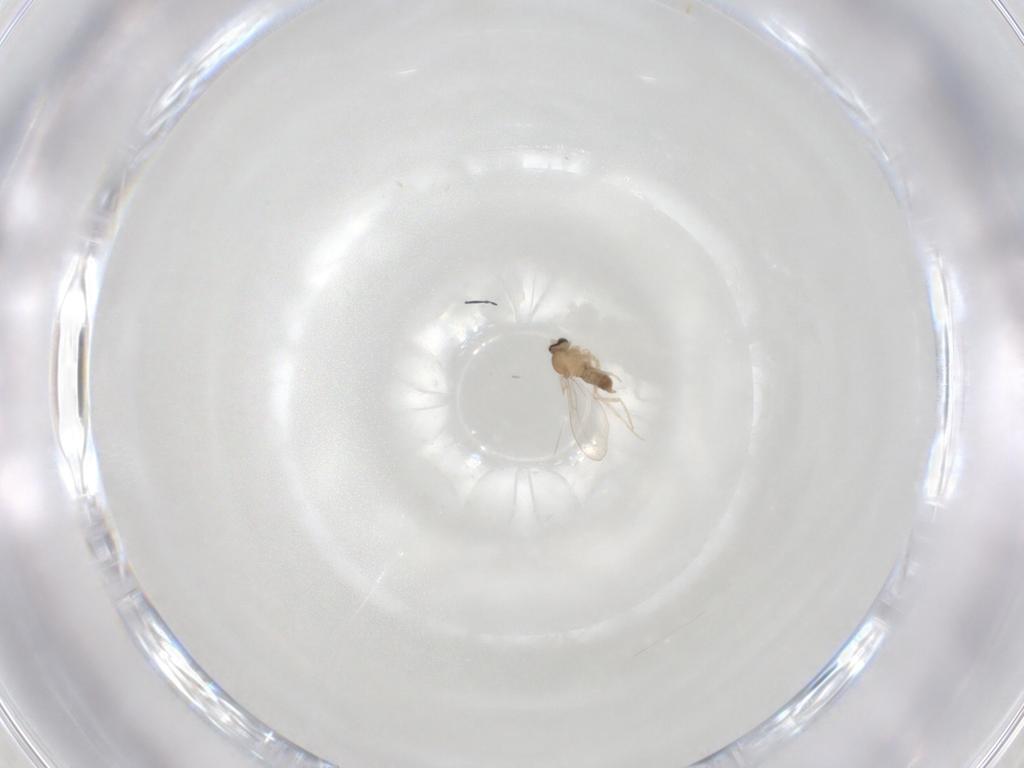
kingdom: Animalia
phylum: Arthropoda
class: Insecta
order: Diptera
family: Cecidomyiidae
